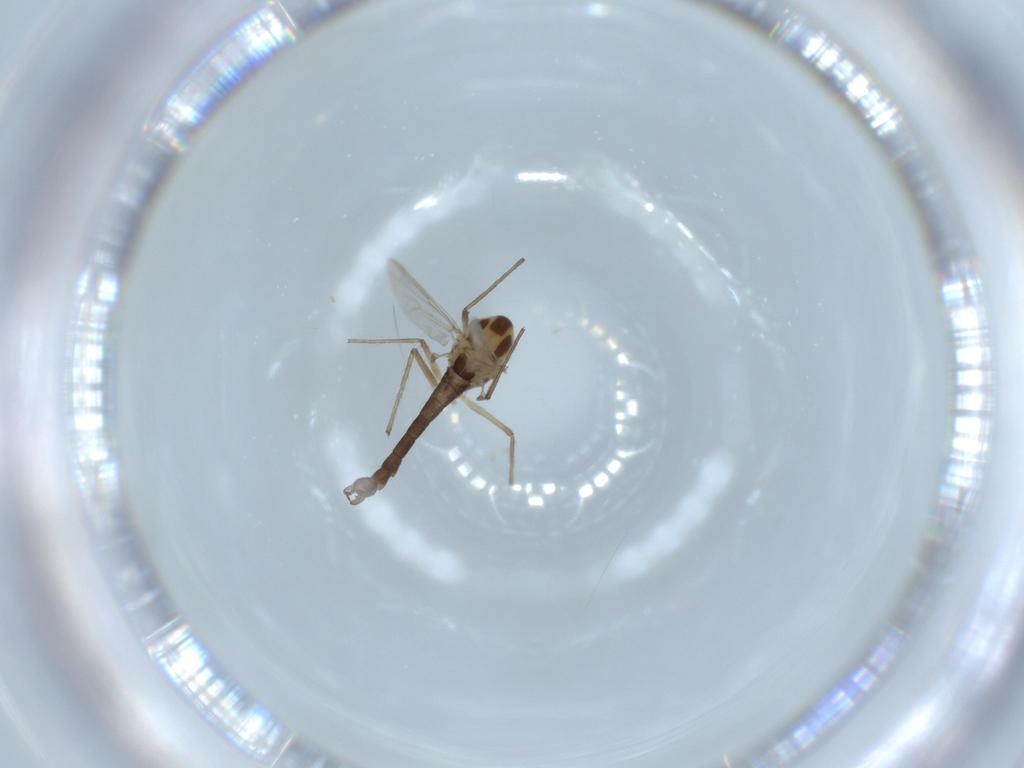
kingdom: Animalia
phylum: Arthropoda
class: Insecta
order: Diptera
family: Chironomidae
